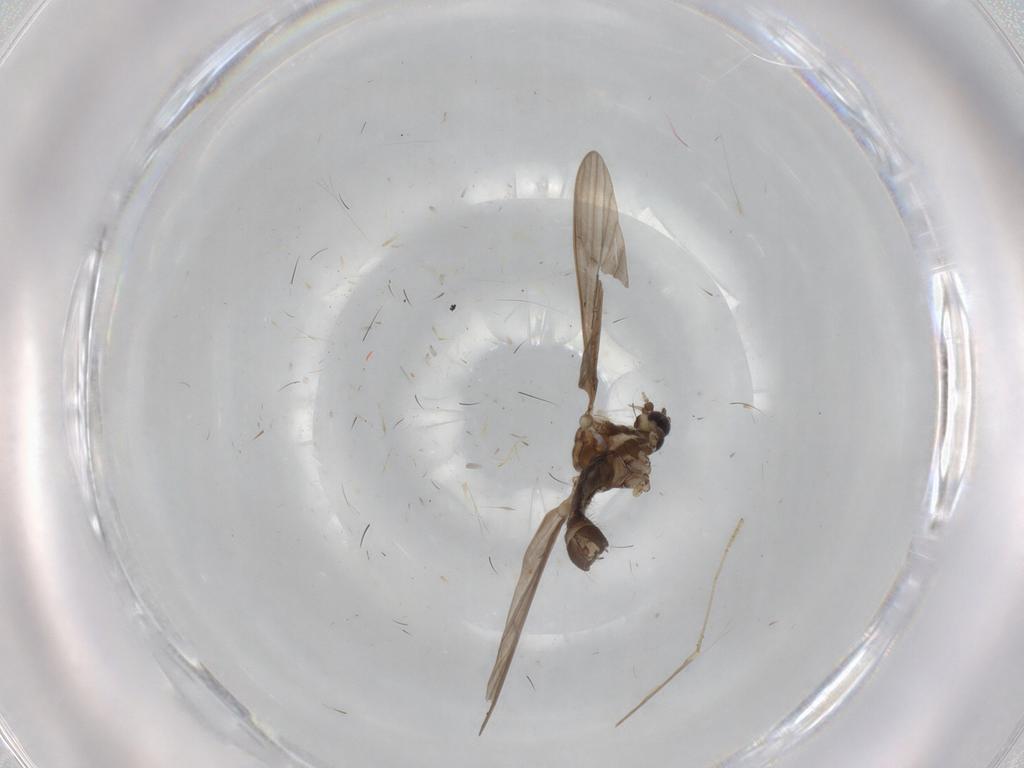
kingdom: Animalia
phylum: Arthropoda
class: Insecta
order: Diptera
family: Limoniidae
